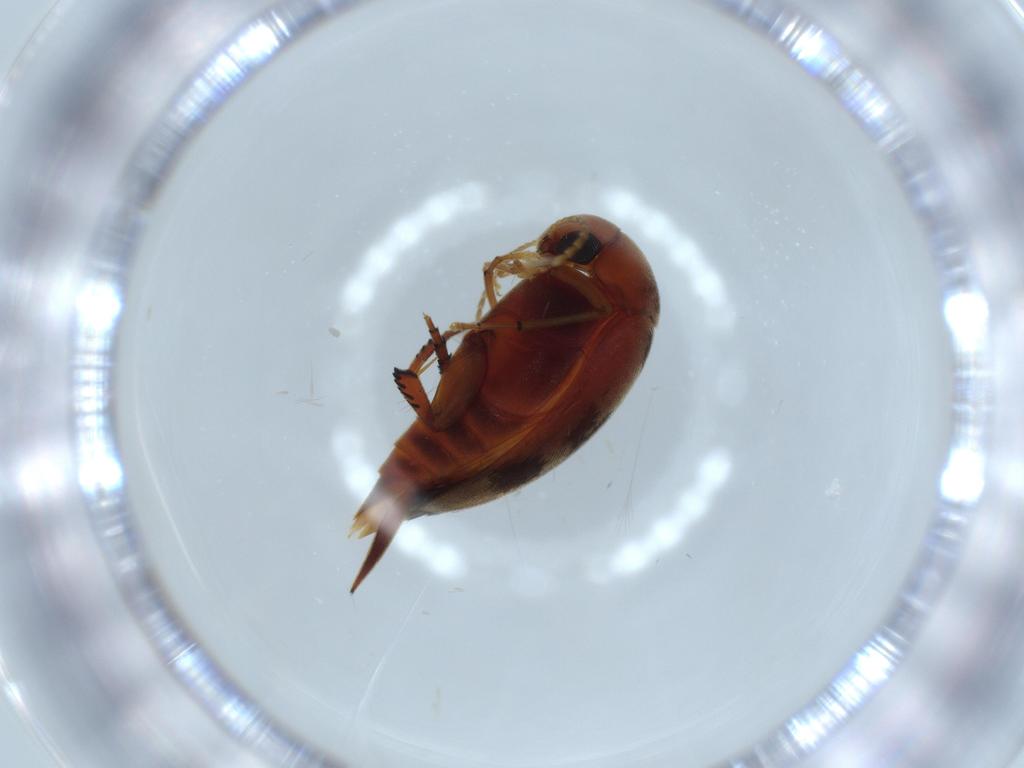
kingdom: Animalia
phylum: Arthropoda
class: Insecta
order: Coleoptera
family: Mordellidae
